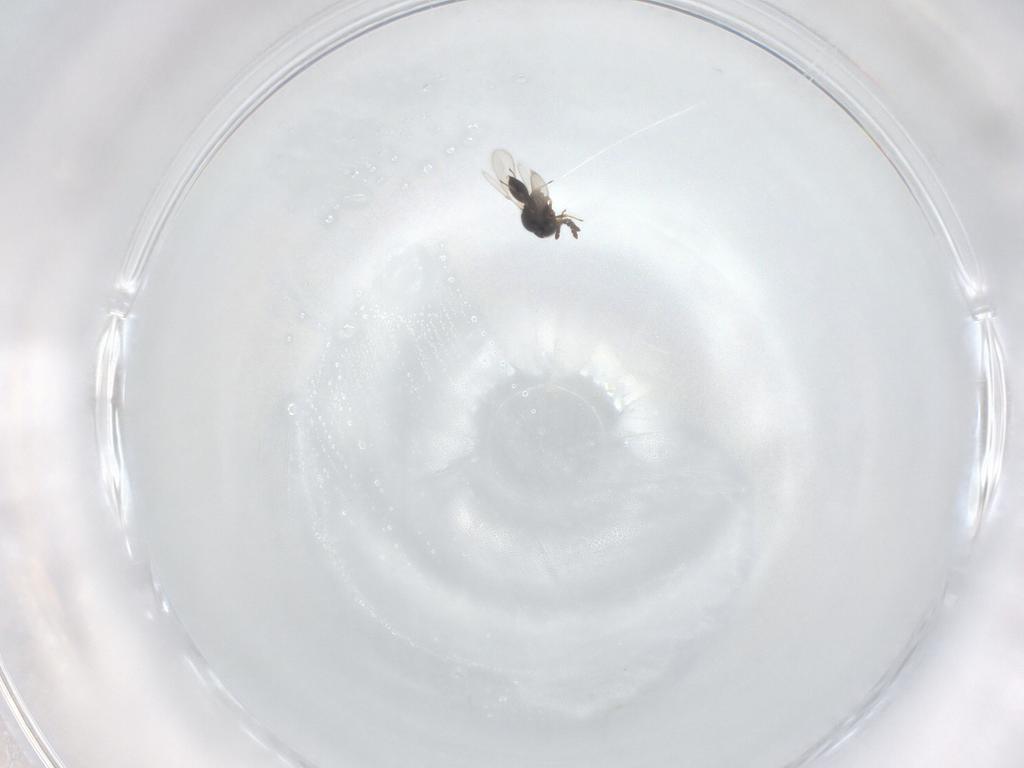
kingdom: Animalia
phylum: Arthropoda
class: Insecta
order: Hymenoptera
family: Scelionidae
